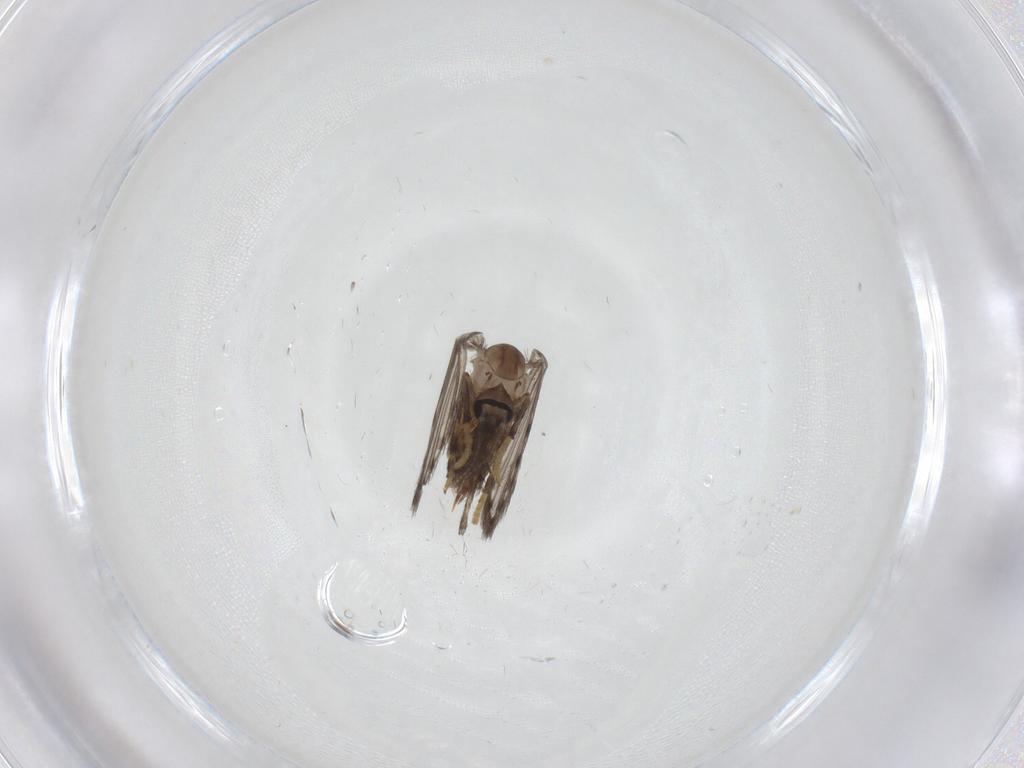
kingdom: Animalia
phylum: Arthropoda
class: Insecta
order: Diptera
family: Psychodidae
